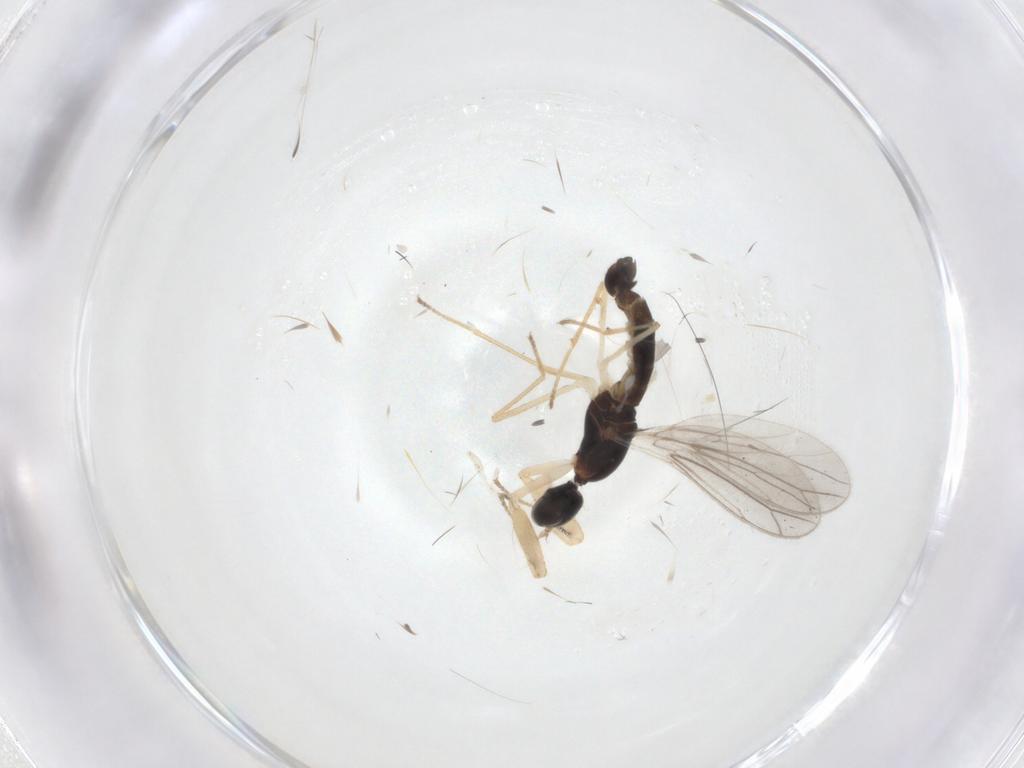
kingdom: Animalia
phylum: Arthropoda
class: Insecta
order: Diptera
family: Empididae
